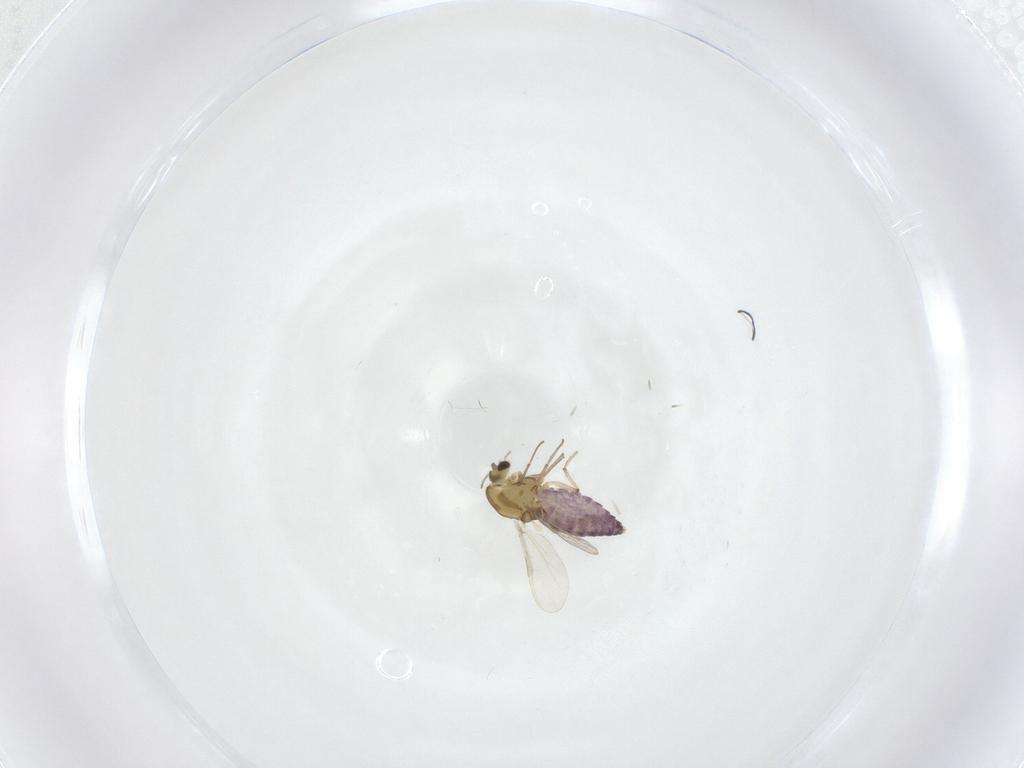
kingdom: Animalia
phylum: Arthropoda
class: Insecta
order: Diptera
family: Chironomidae
